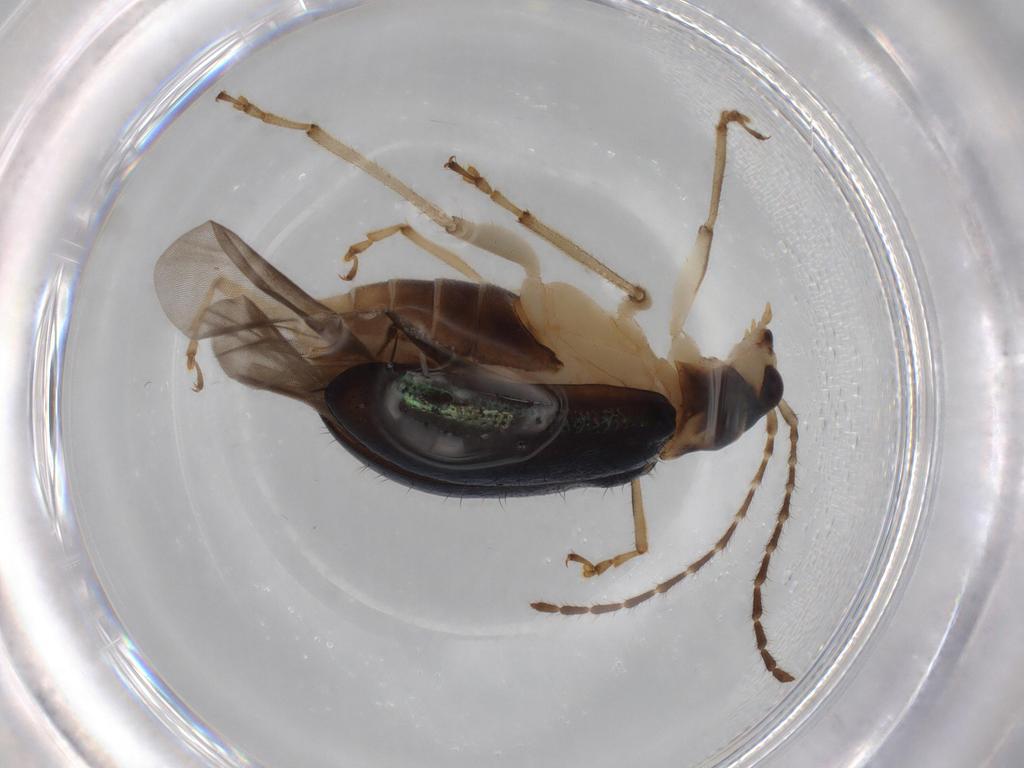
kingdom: Animalia
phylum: Arthropoda
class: Insecta
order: Coleoptera
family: Chrysomelidae
